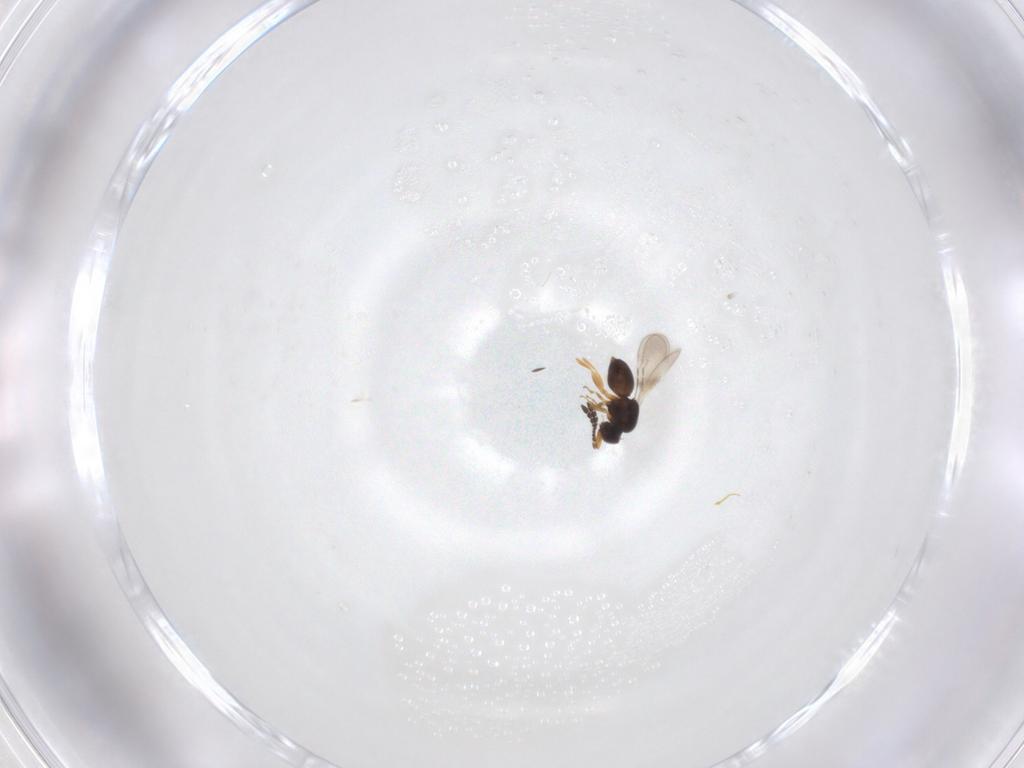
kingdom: Animalia
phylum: Arthropoda
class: Insecta
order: Hymenoptera
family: Ceraphronidae
